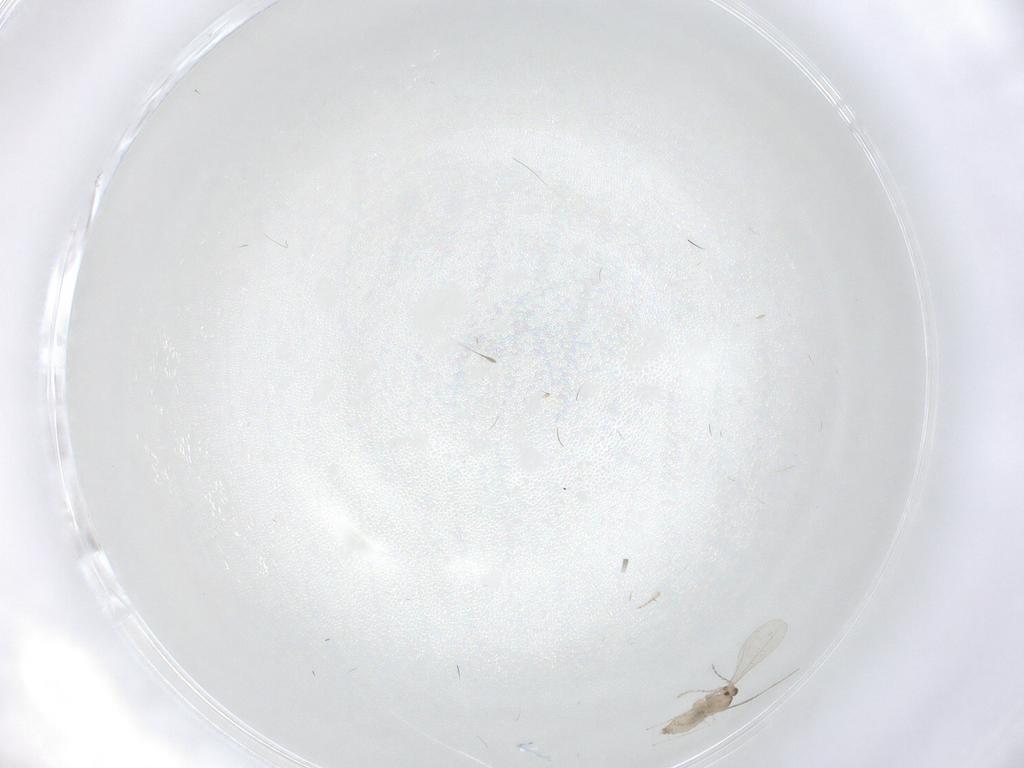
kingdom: Animalia
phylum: Arthropoda
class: Insecta
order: Diptera
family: Cecidomyiidae
